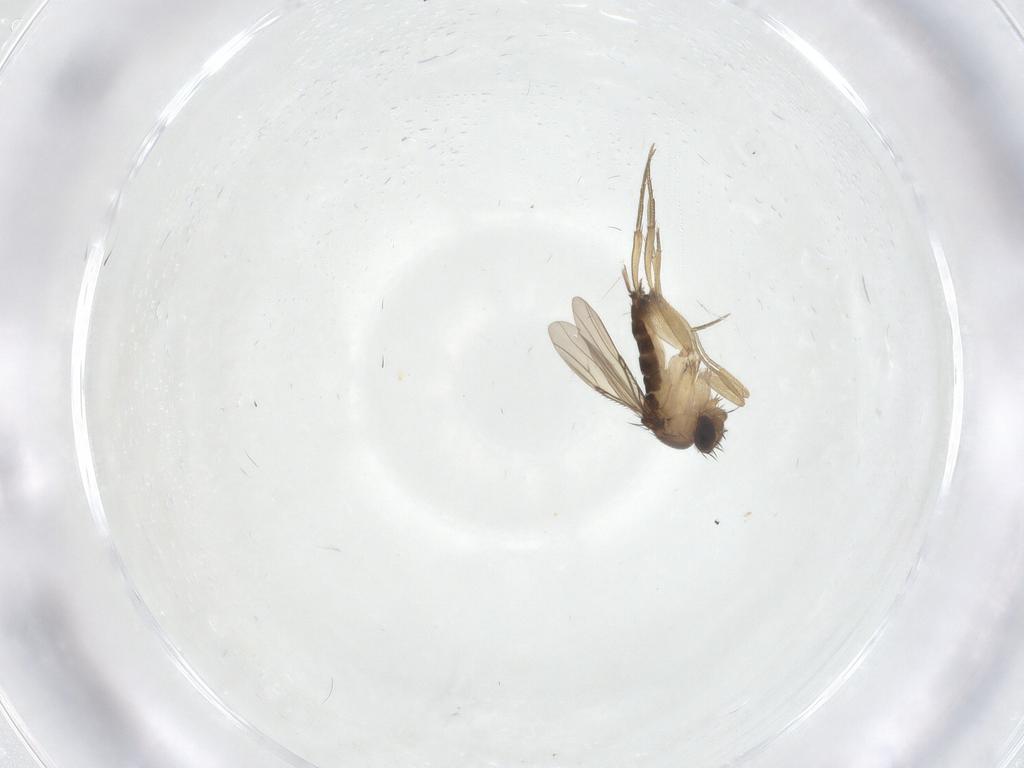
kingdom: Animalia
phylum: Arthropoda
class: Insecta
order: Diptera
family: Phoridae
